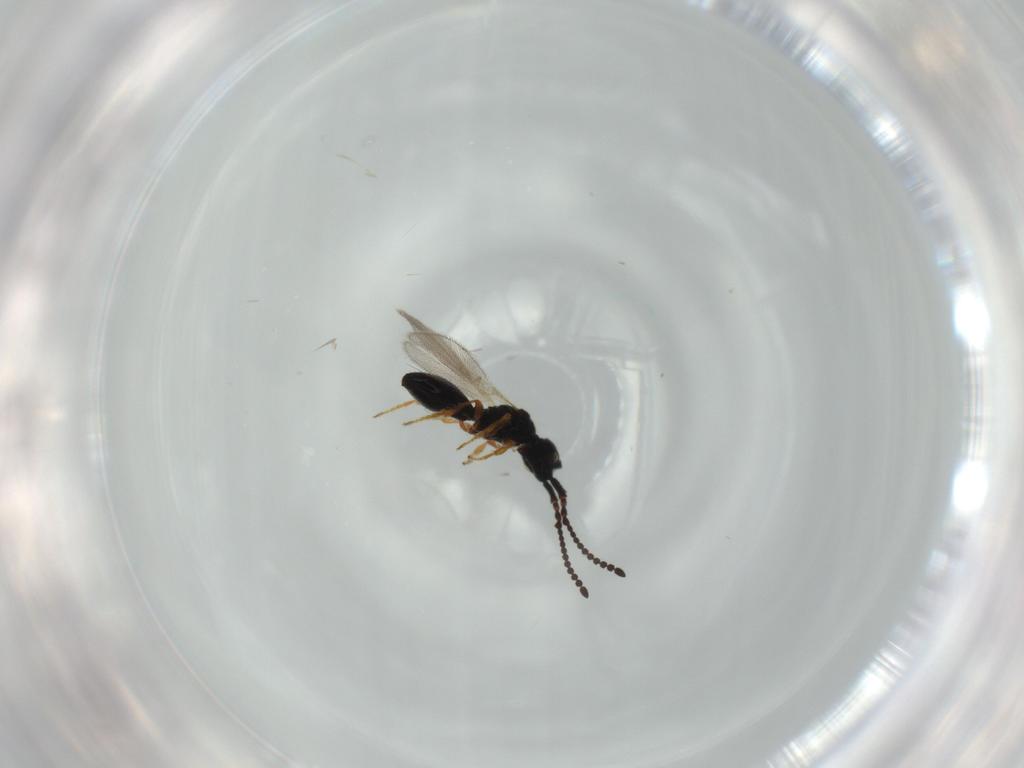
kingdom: Animalia
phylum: Arthropoda
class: Insecta
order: Hymenoptera
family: Diapriidae
